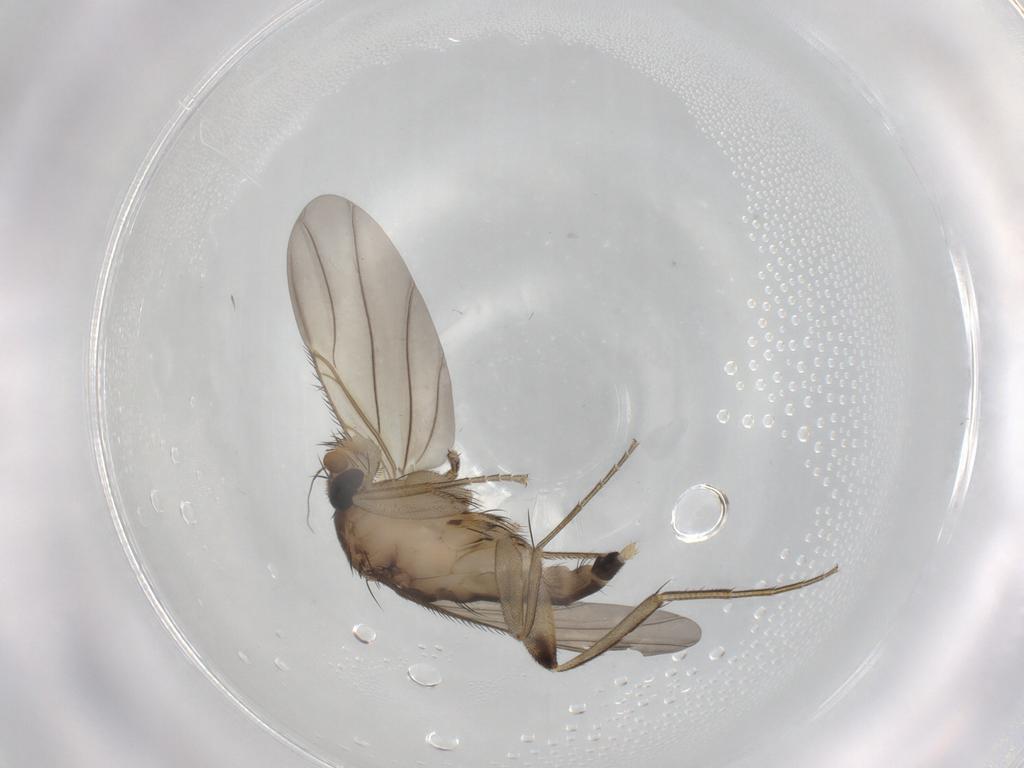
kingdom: Animalia
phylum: Arthropoda
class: Insecta
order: Diptera
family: Phoridae
